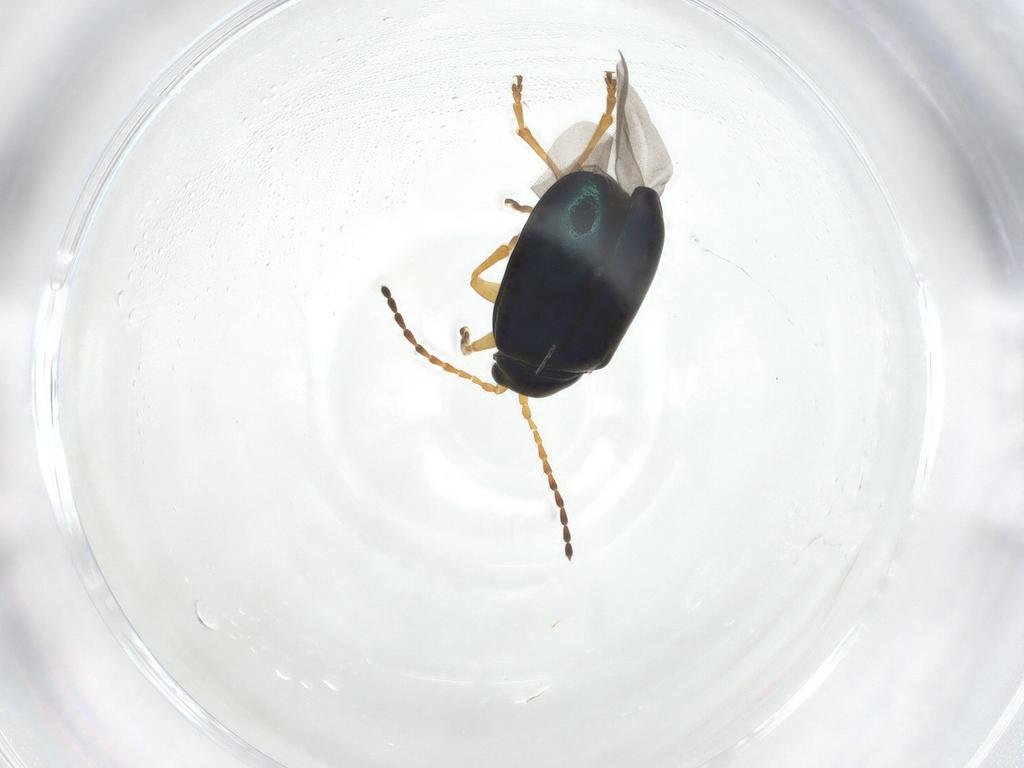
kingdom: Animalia
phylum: Arthropoda
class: Insecta
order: Coleoptera
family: Chrysomelidae
